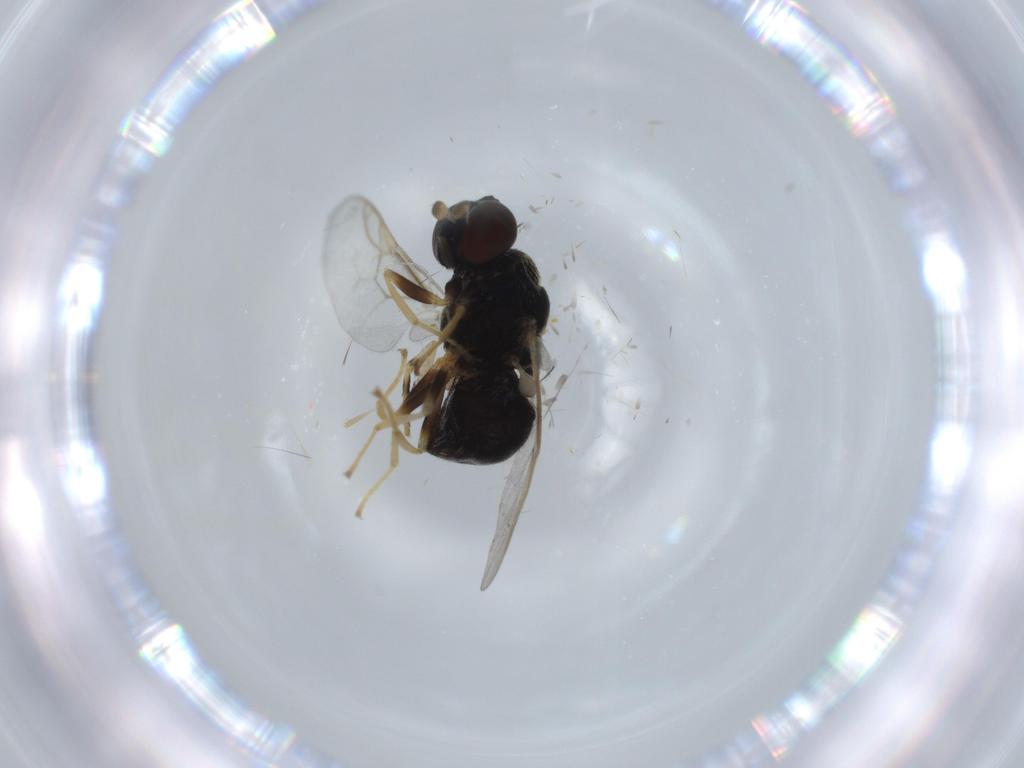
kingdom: Animalia
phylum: Arthropoda
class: Insecta
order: Diptera
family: Stratiomyidae
